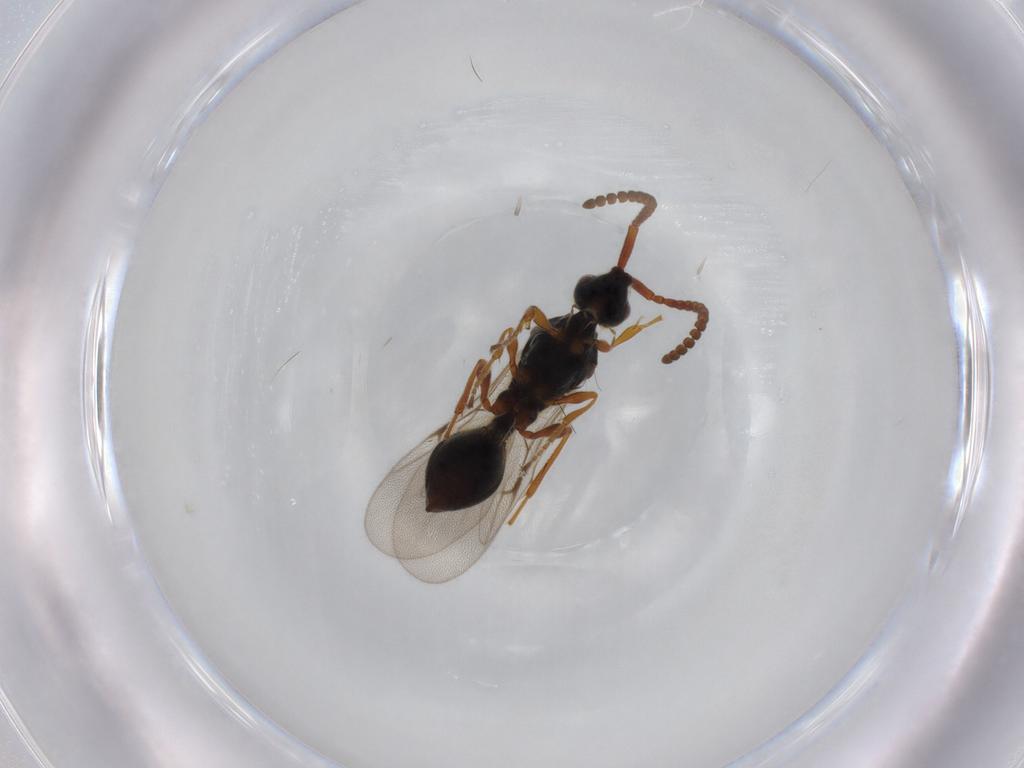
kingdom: Animalia
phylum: Arthropoda
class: Insecta
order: Hymenoptera
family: Diapriidae
